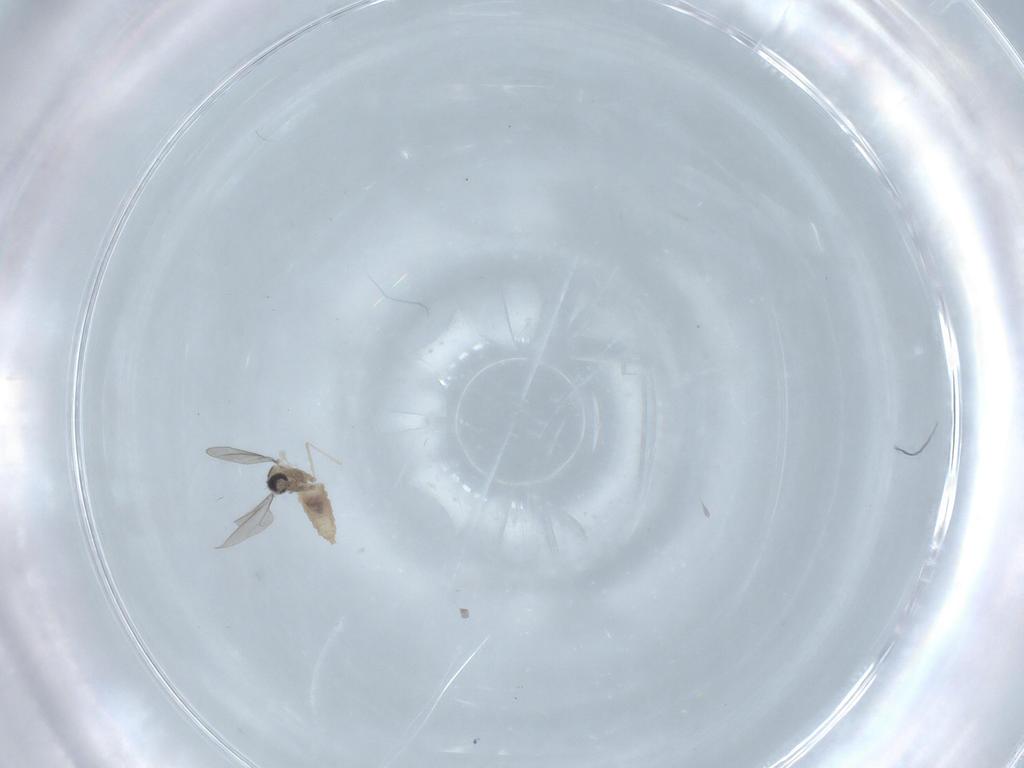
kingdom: Animalia
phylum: Arthropoda
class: Insecta
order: Diptera
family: Cecidomyiidae
